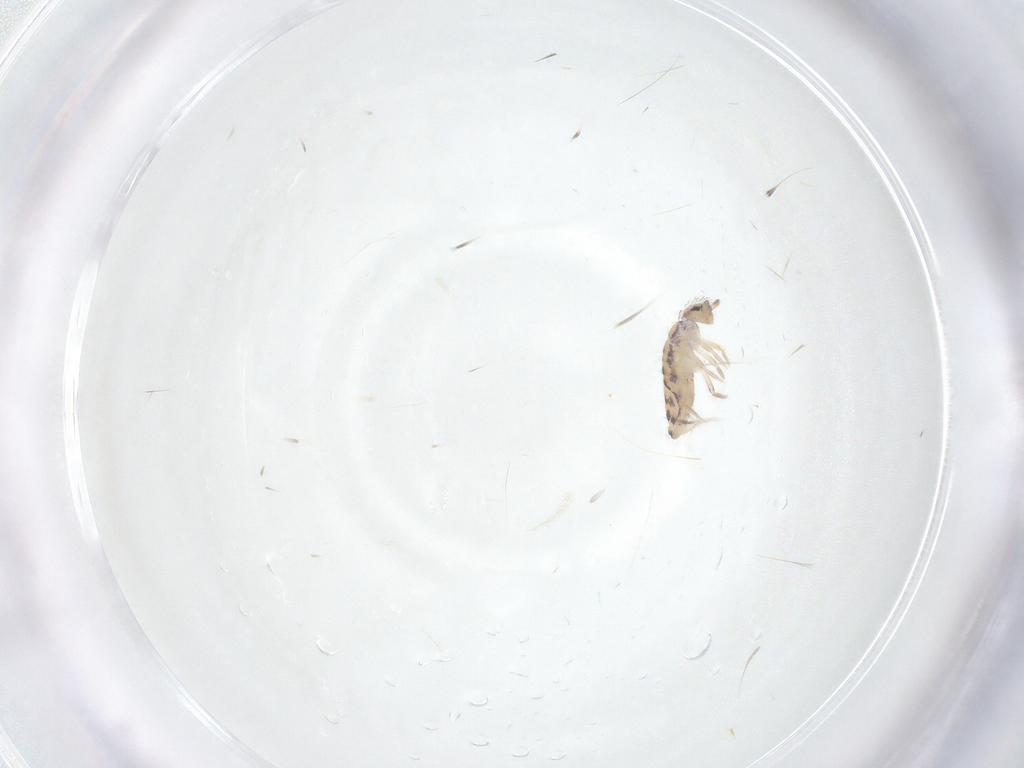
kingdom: Animalia
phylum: Arthropoda
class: Collembola
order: Entomobryomorpha
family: Entomobryidae
